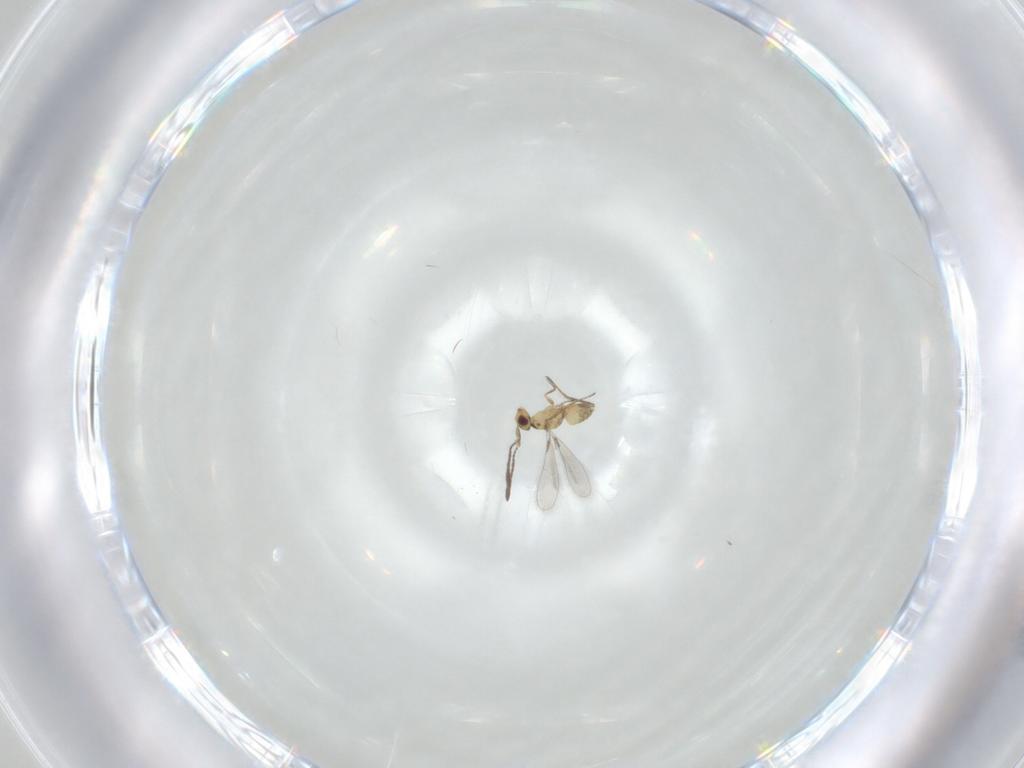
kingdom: Animalia
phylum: Arthropoda
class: Insecta
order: Hymenoptera
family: Mymaridae
